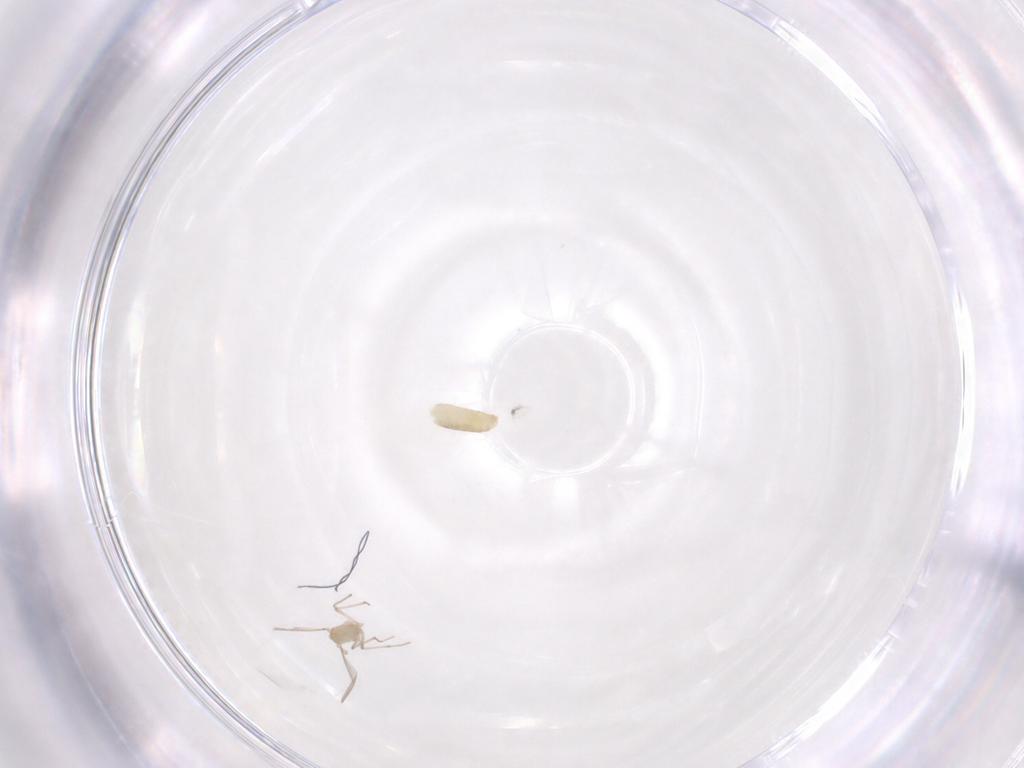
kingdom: Animalia
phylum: Arthropoda
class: Insecta
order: Diptera
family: Chironomidae
